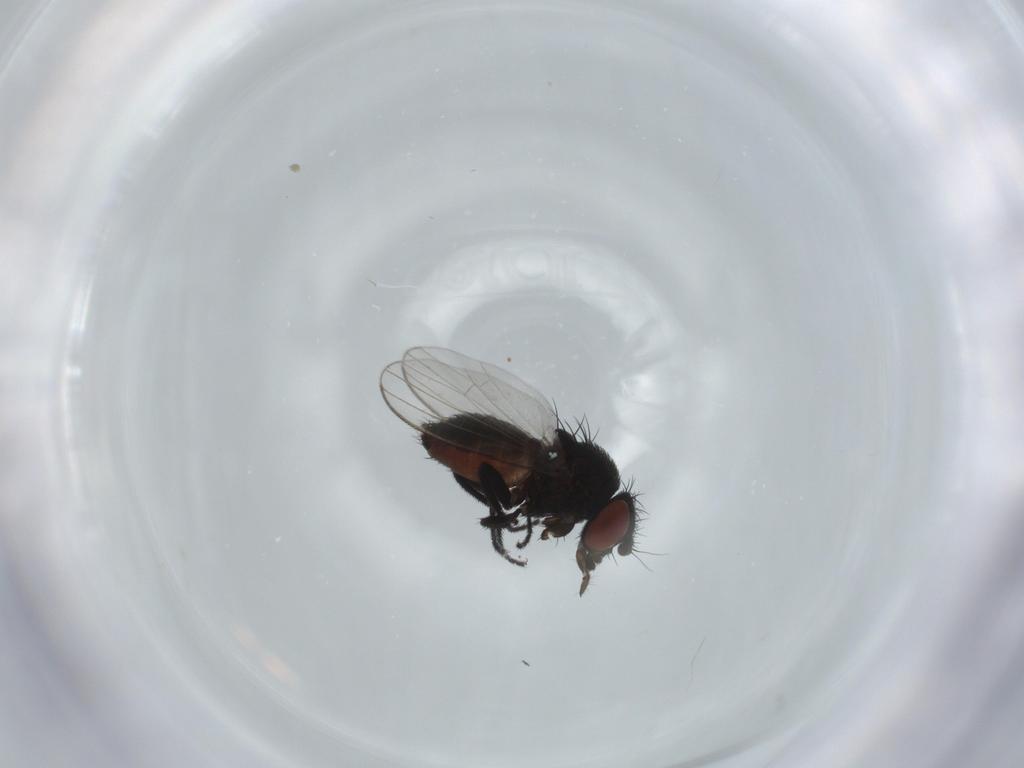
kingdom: Animalia
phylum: Arthropoda
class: Insecta
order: Diptera
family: Milichiidae
